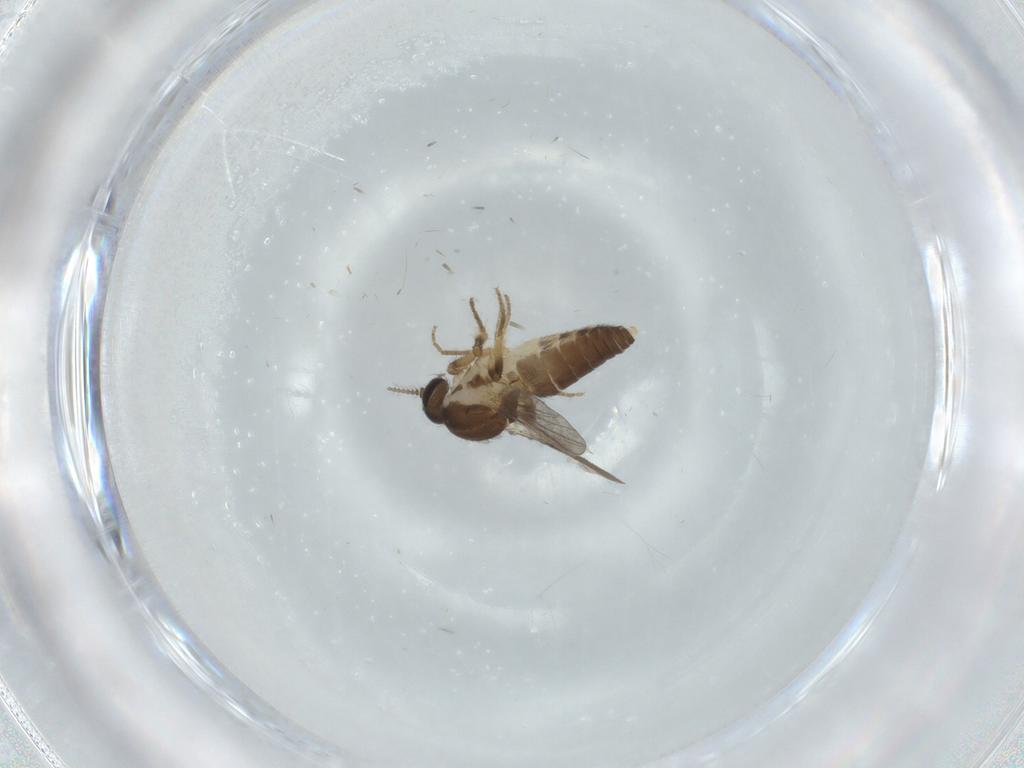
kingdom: Animalia
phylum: Arthropoda
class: Insecta
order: Diptera
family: Ceratopogonidae
